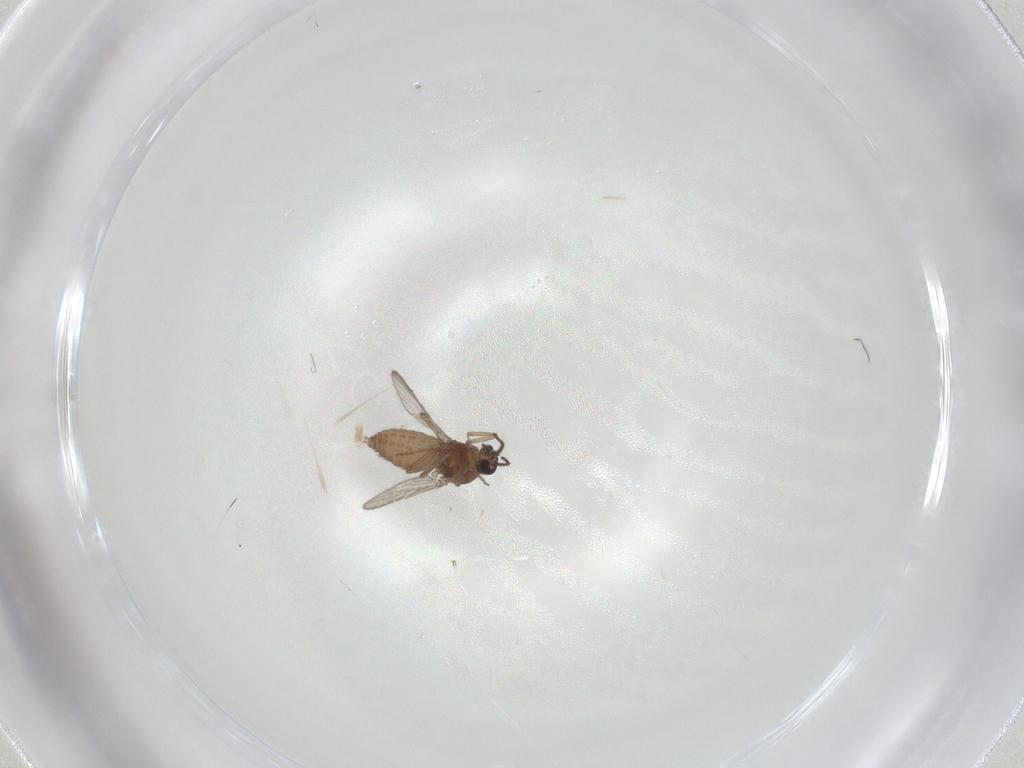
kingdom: Animalia
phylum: Arthropoda
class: Insecta
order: Diptera
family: Ceratopogonidae
